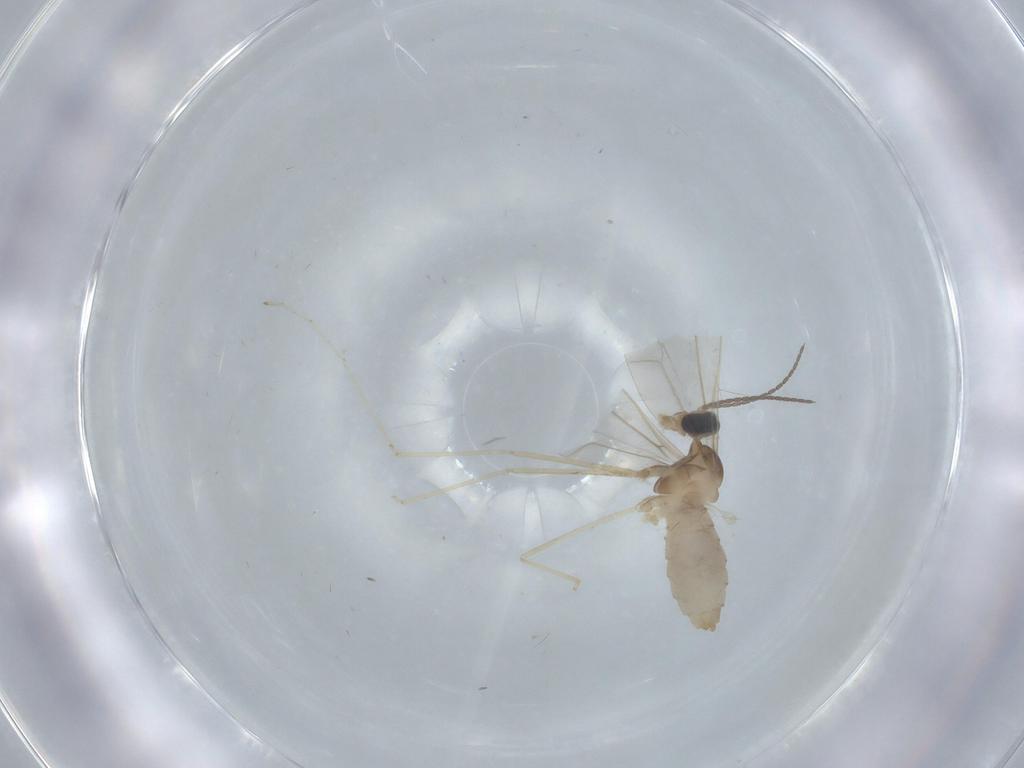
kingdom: Animalia
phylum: Arthropoda
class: Insecta
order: Diptera
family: Cecidomyiidae
